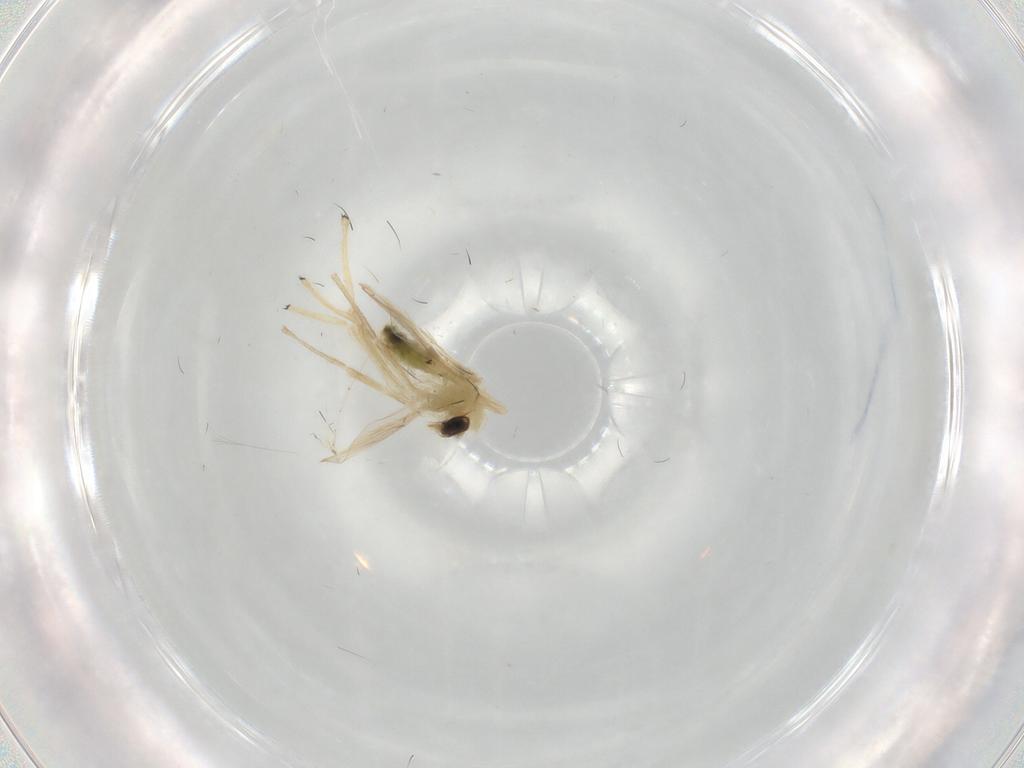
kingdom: Animalia
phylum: Arthropoda
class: Insecta
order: Diptera
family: Chironomidae
